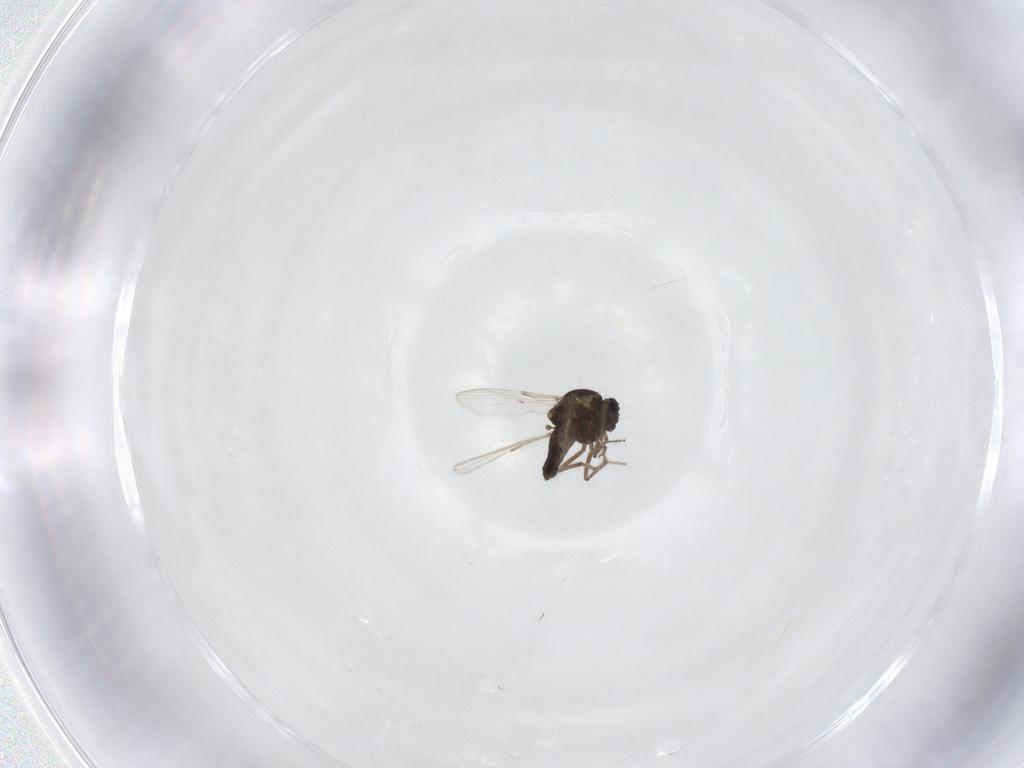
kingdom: Animalia
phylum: Arthropoda
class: Insecta
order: Diptera
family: Ceratopogonidae
